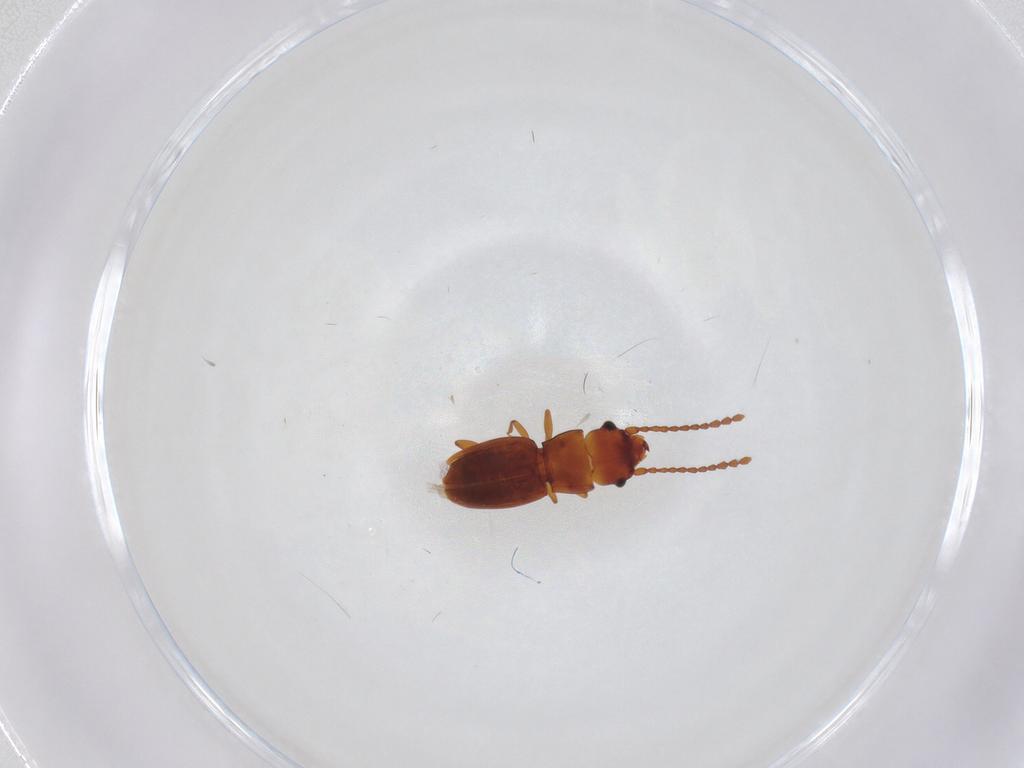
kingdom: Animalia
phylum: Arthropoda
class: Insecta
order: Coleoptera
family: Laemophloeidae
